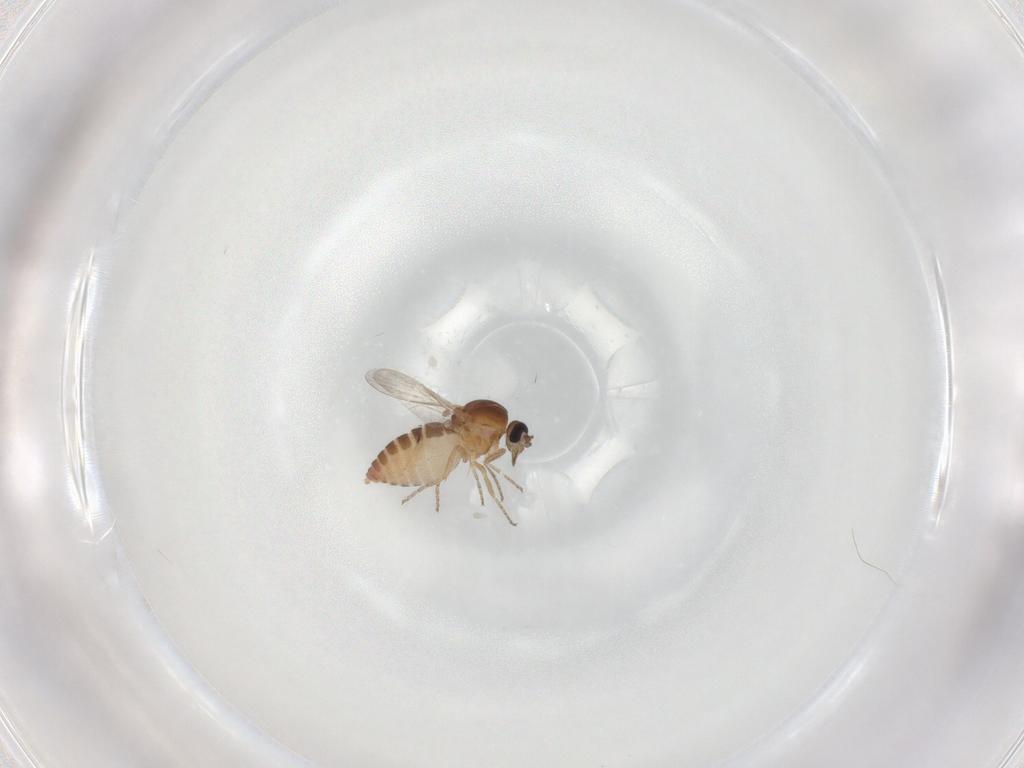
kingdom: Animalia
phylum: Arthropoda
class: Insecta
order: Diptera
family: Ceratopogonidae
